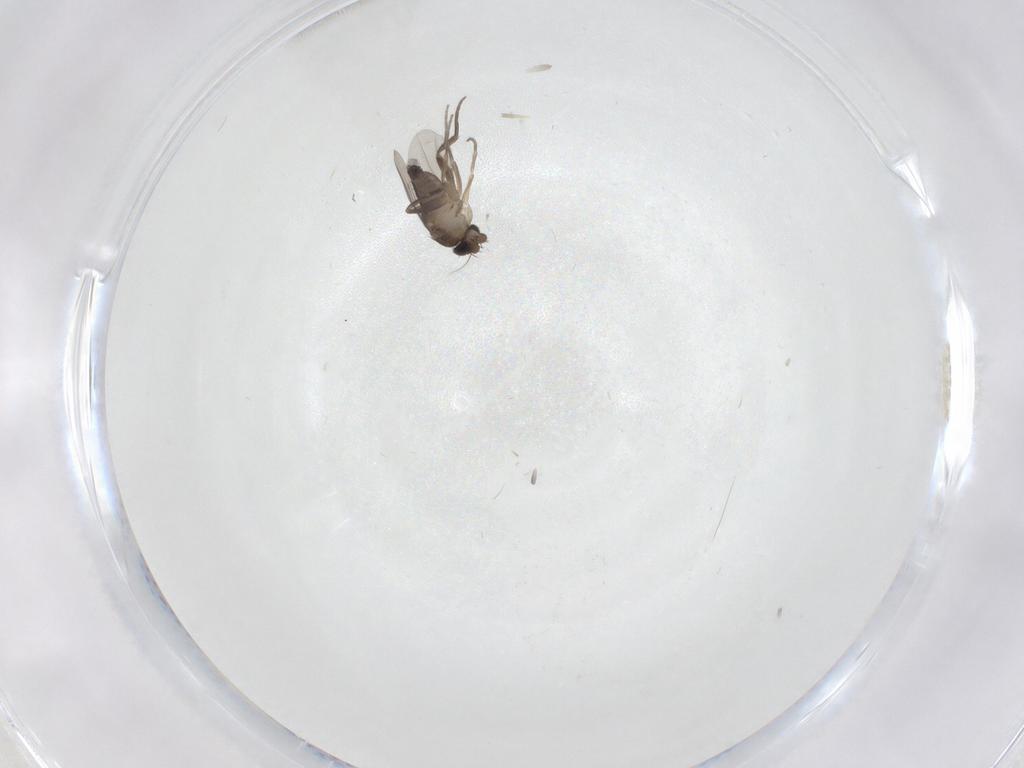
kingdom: Animalia
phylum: Arthropoda
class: Insecta
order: Diptera
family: Phoridae
